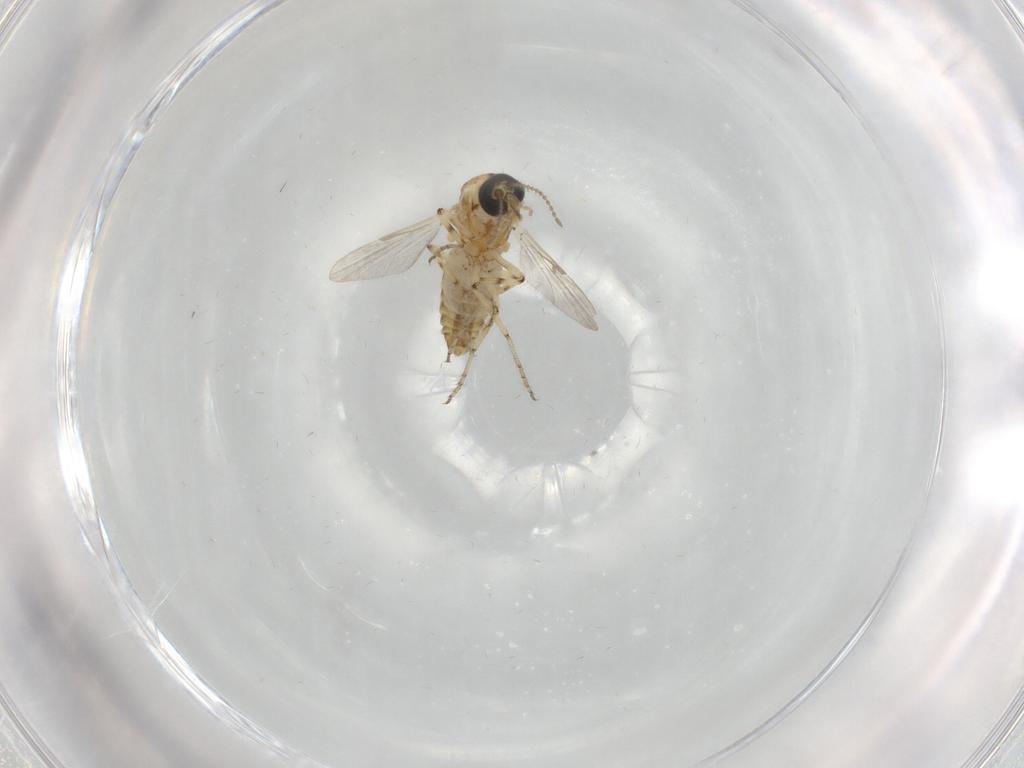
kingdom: Animalia
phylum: Arthropoda
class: Insecta
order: Diptera
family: Ceratopogonidae
